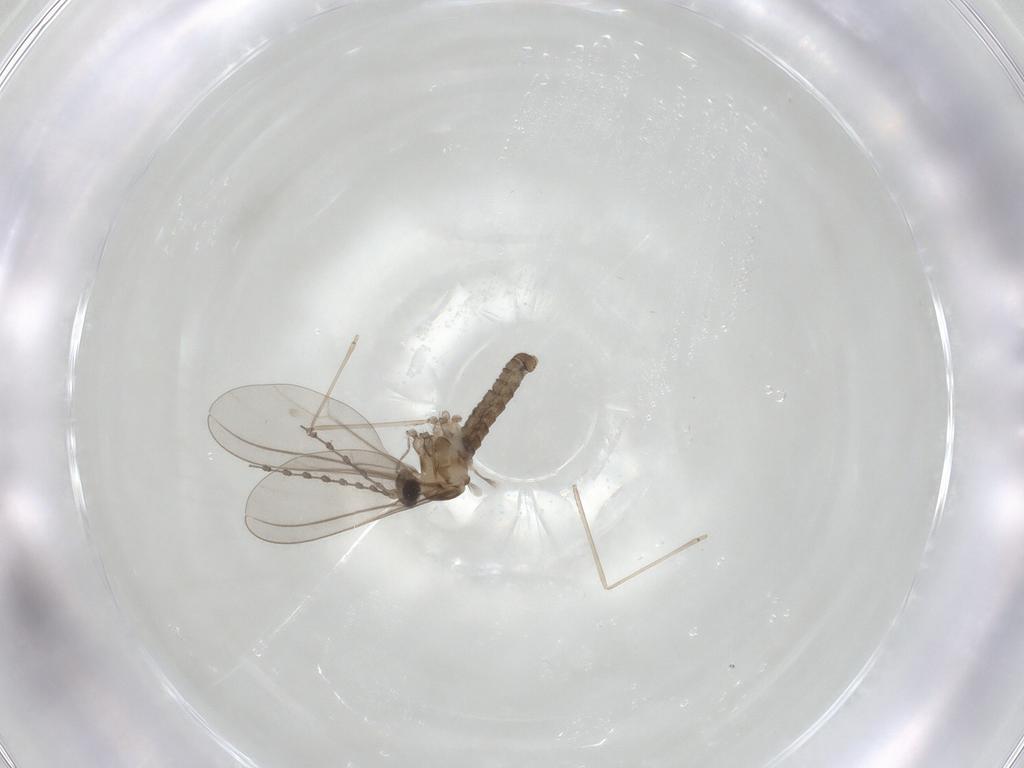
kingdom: Animalia
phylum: Arthropoda
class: Insecta
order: Diptera
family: Cecidomyiidae
